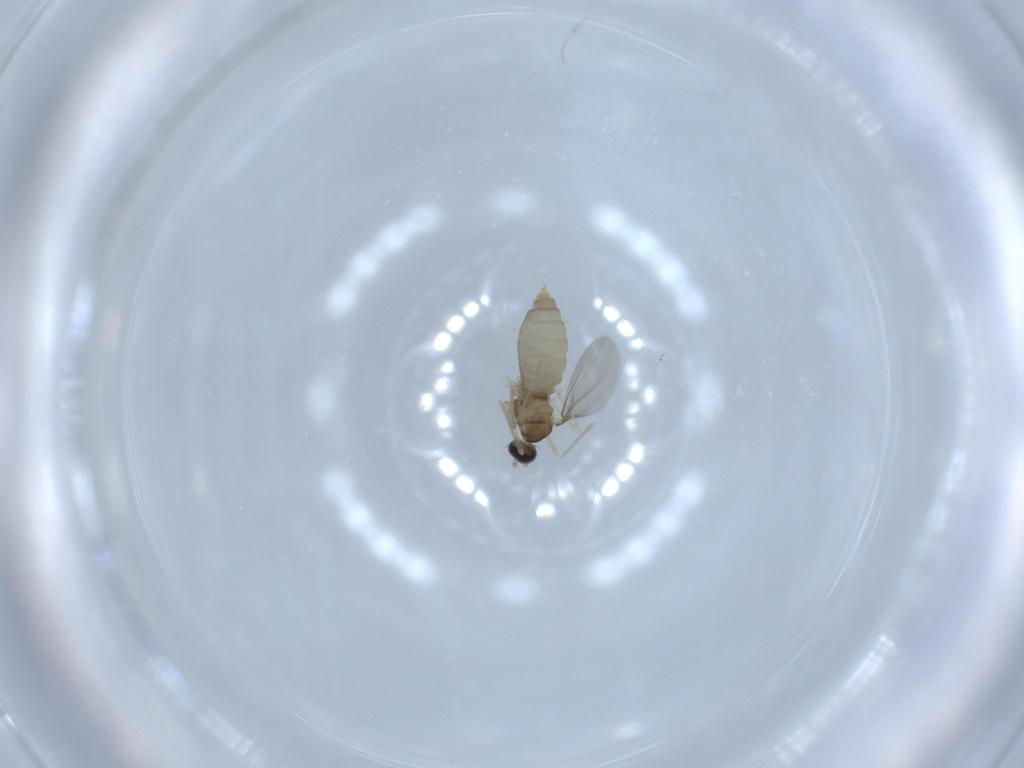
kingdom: Animalia
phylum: Arthropoda
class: Insecta
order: Diptera
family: Cecidomyiidae
